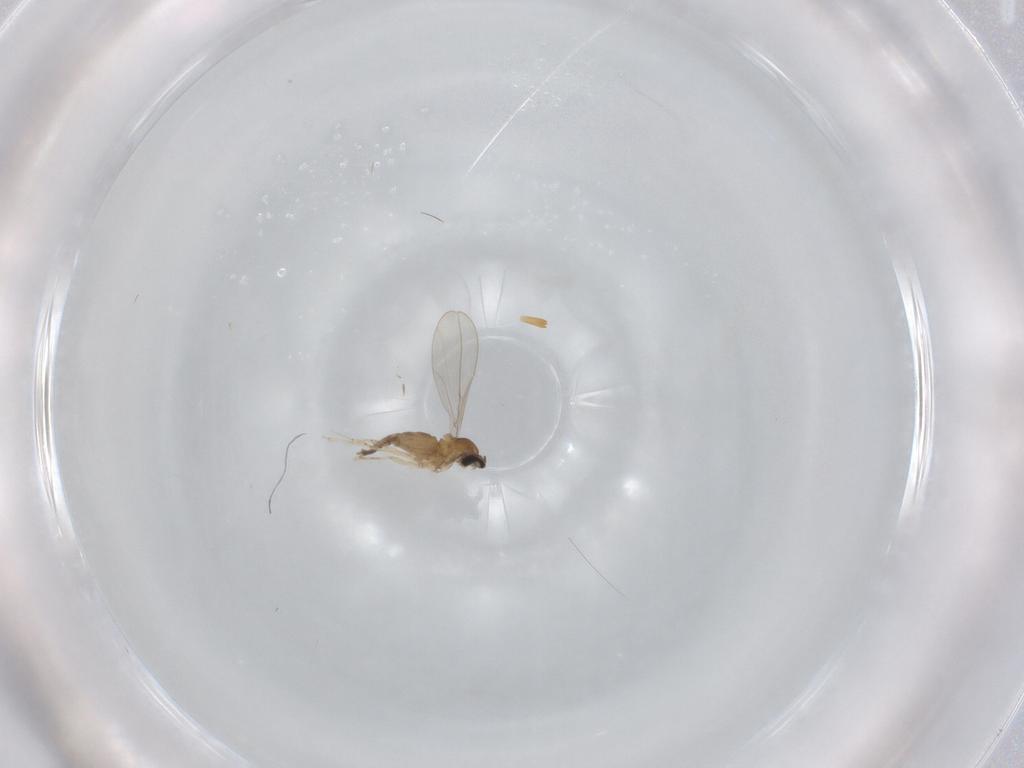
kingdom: Animalia
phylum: Arthropoda
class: Insecta
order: Diptera
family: Cecidomyiidae
